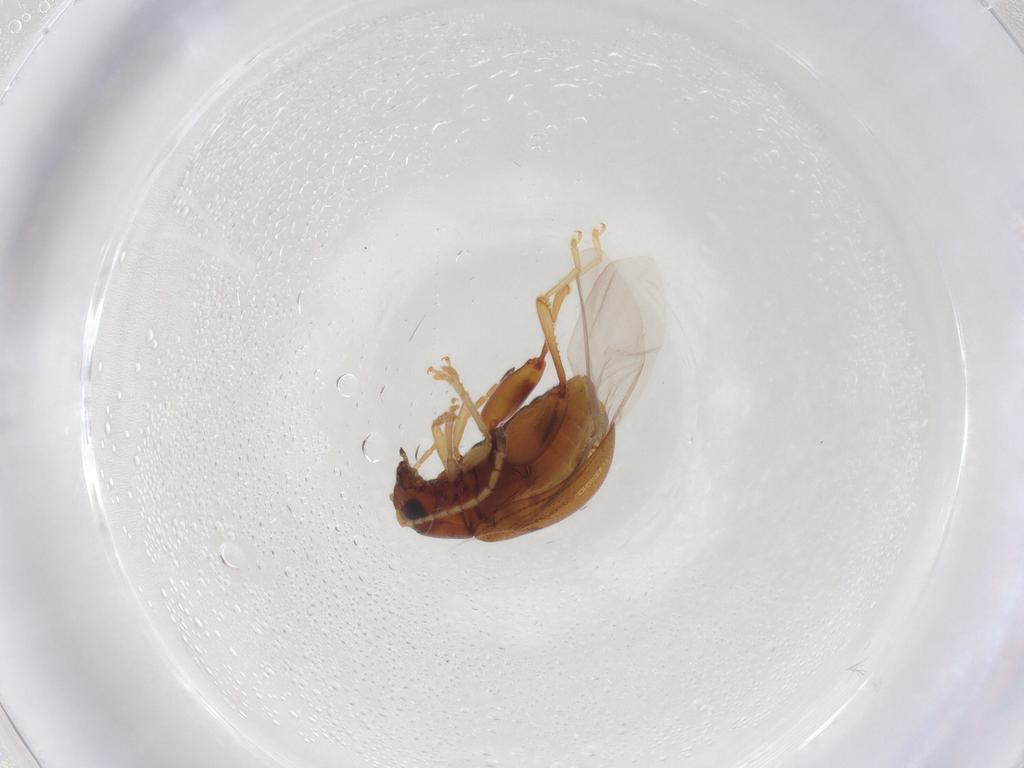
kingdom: Animalia
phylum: Arthropoda
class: Insecta
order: Coleoptera
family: Chrysomelidae
